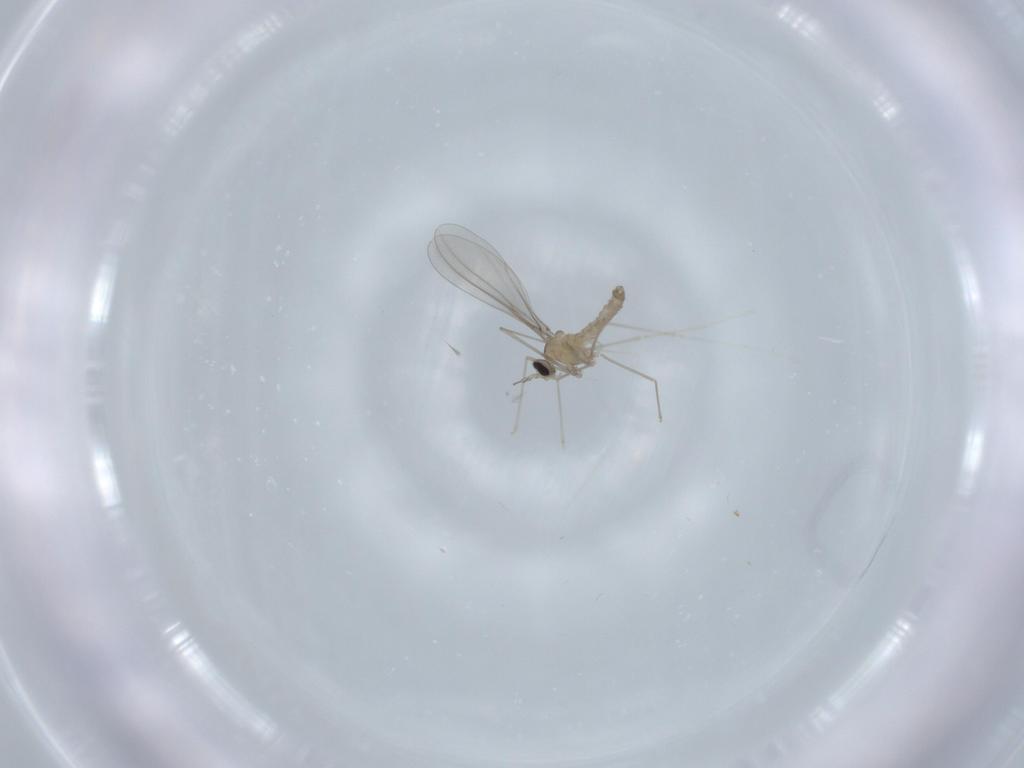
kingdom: Animalia
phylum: Arthropoda
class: Insecta
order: Diptera
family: Cecidomyiidae
